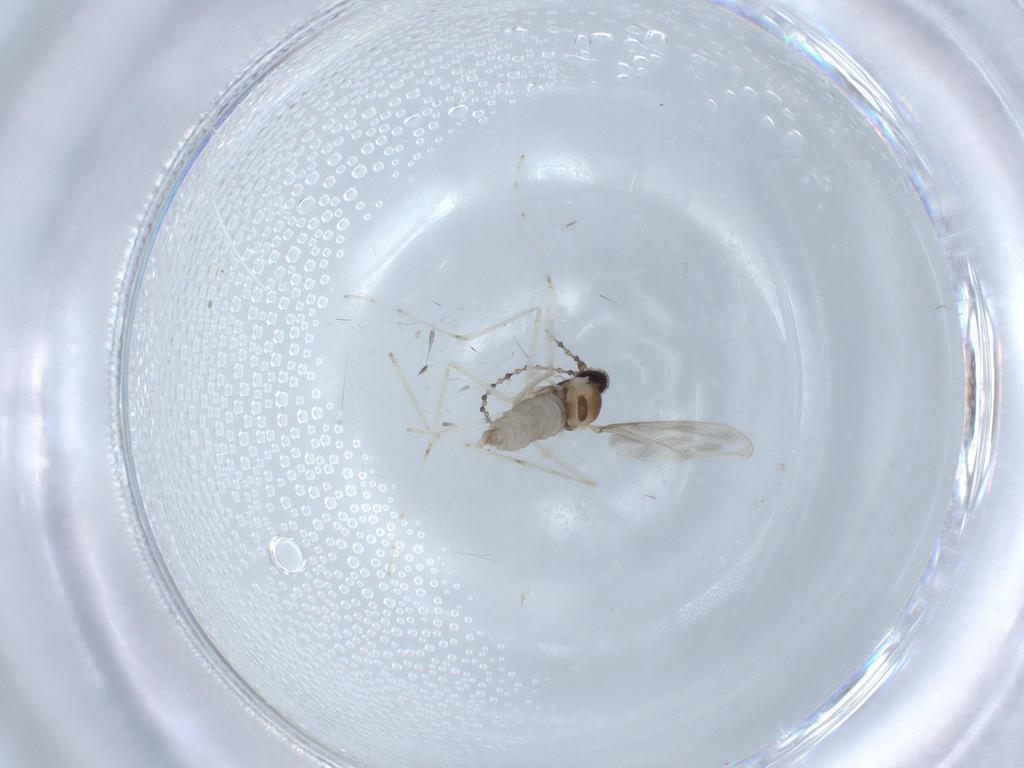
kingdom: Animalia
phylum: Arthropoda
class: Insecta
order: Diptera
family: Cecidomyiidae
